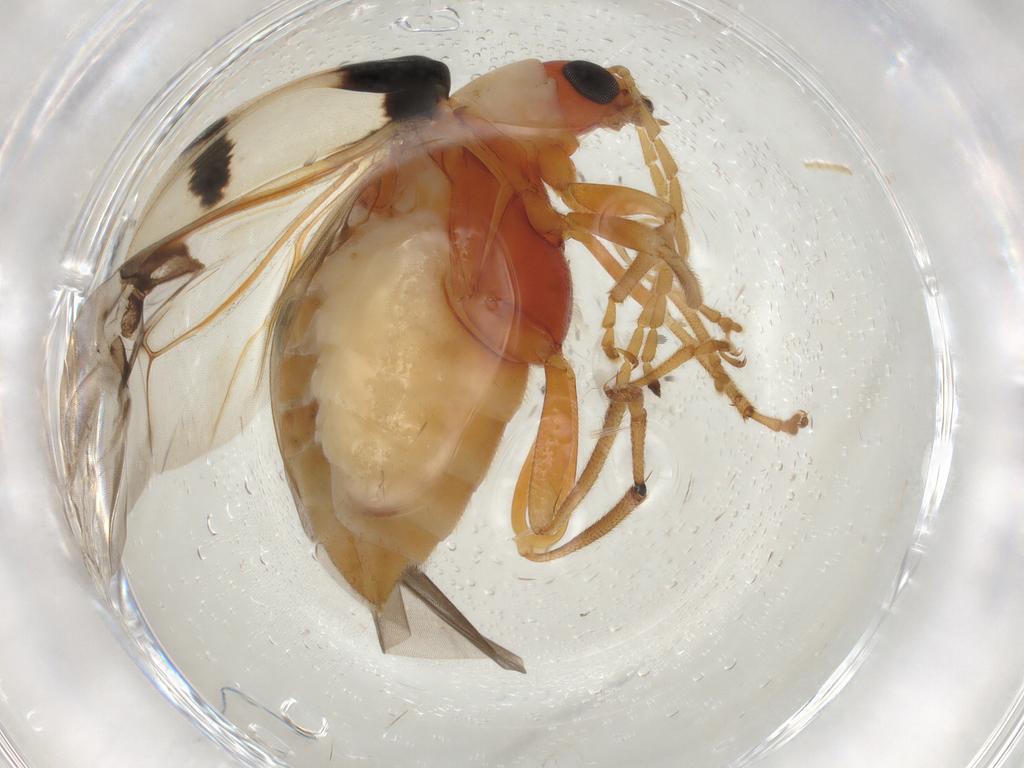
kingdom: Animalia
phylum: Arthropoda
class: Insecta
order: Coleoptera
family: Chrysomelidae
